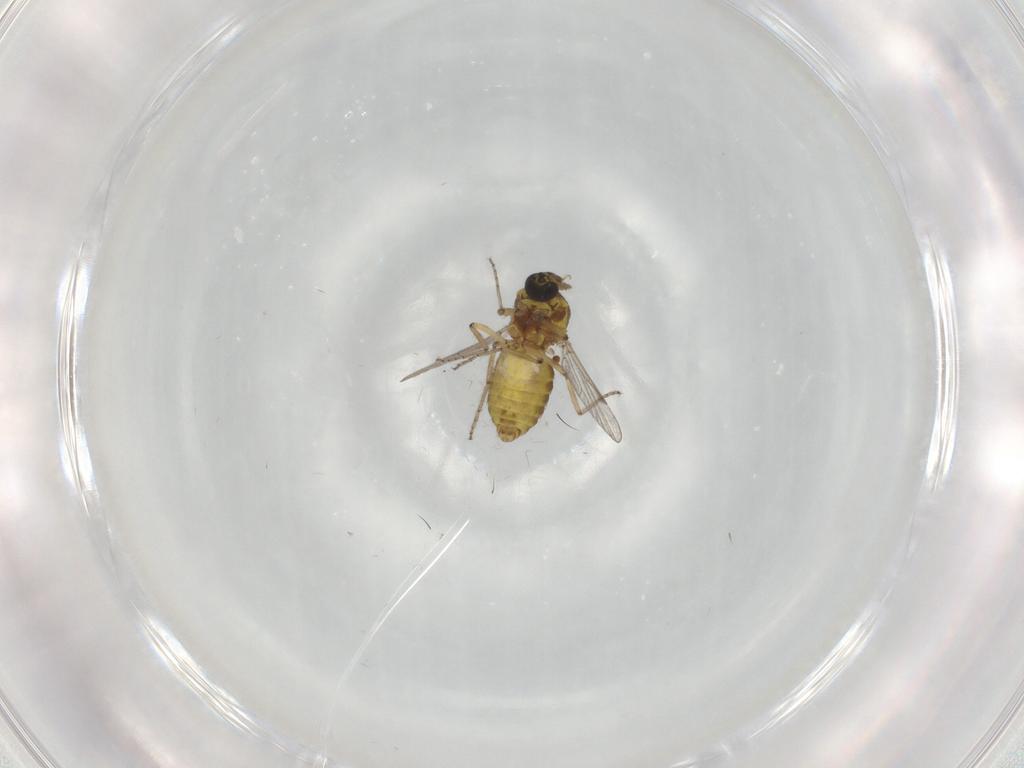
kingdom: Animalia
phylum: Arthropoda
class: Insecta
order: Diptera
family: Ceratopogonidae
